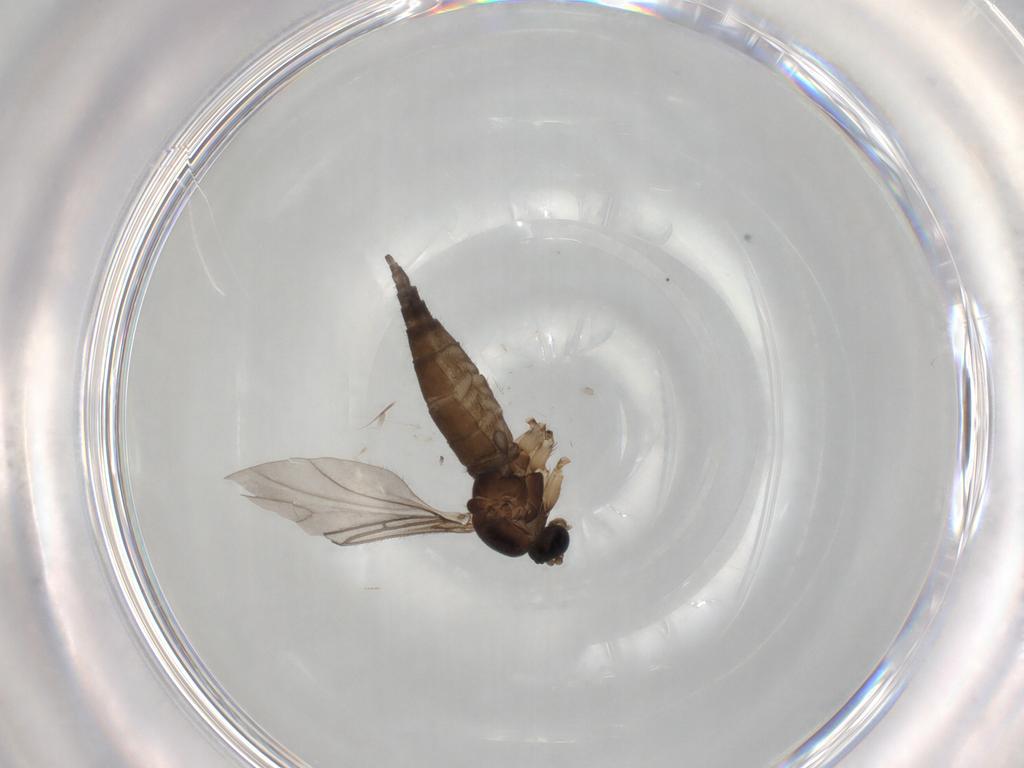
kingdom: Animalia
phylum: Arthropoda
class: Insecta
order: Diptera
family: Sciaridae
